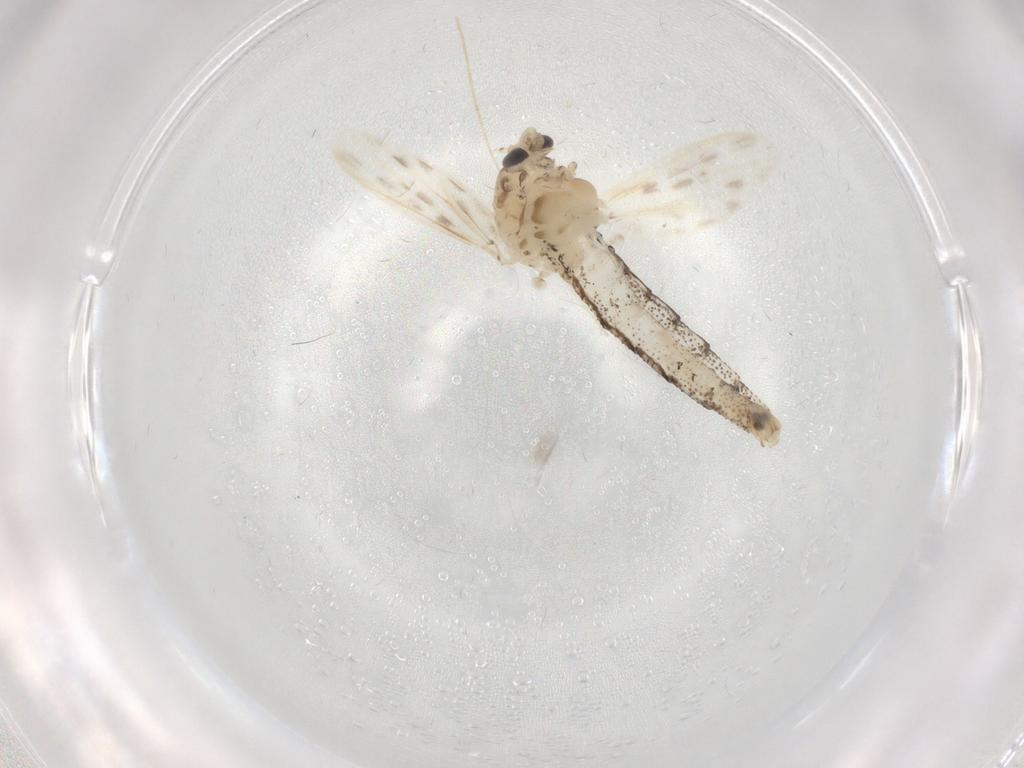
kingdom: Animalia
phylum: Arthropoda
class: Insecta
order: Diptera
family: Chaoboridae
